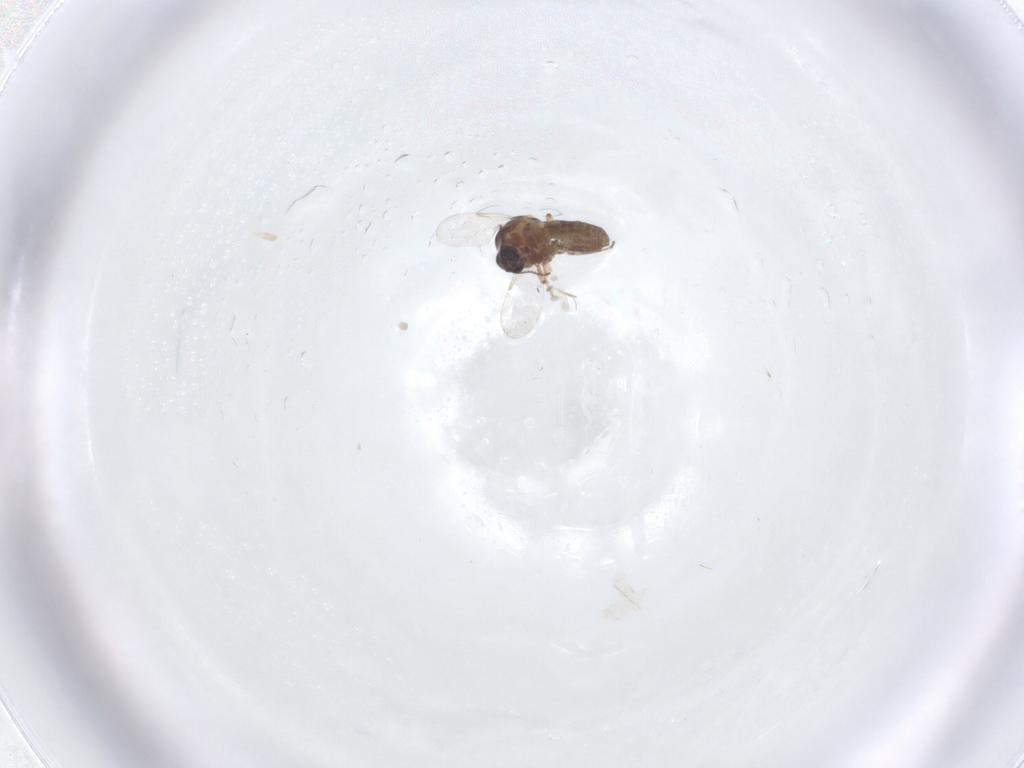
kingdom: Animalia
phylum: Arthropoda
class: Insecta
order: Diptera
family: Ceratopogonidae
